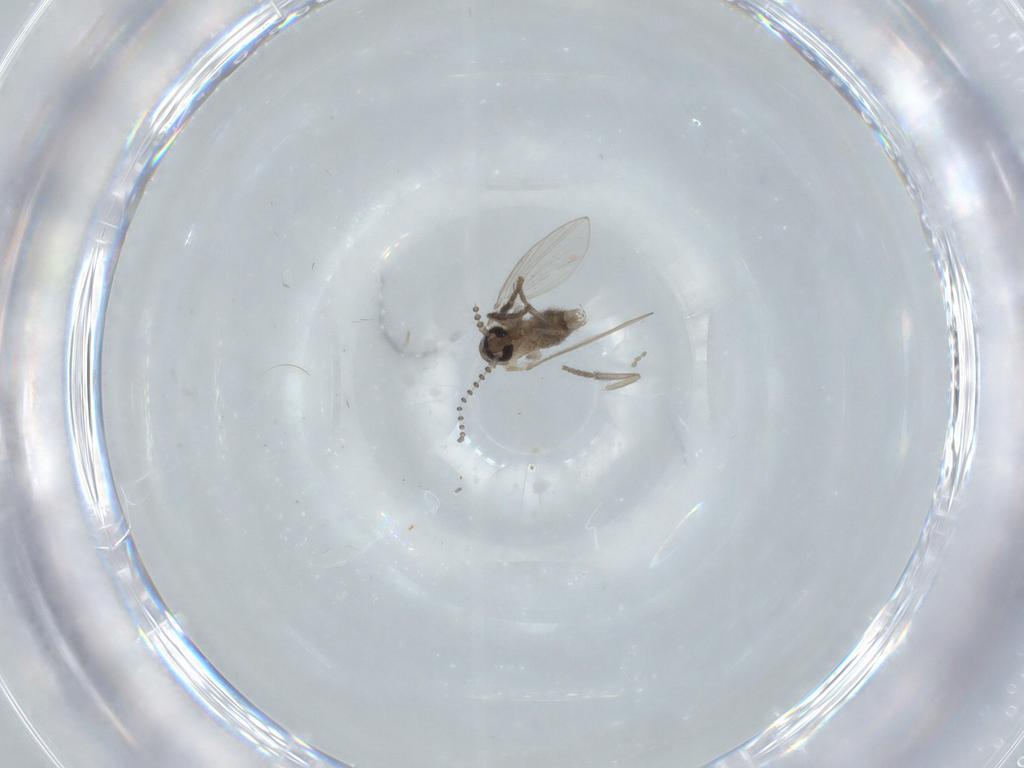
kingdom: Animalia
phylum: Arthropoda
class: Insecta
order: Diptera
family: Psychodidae
